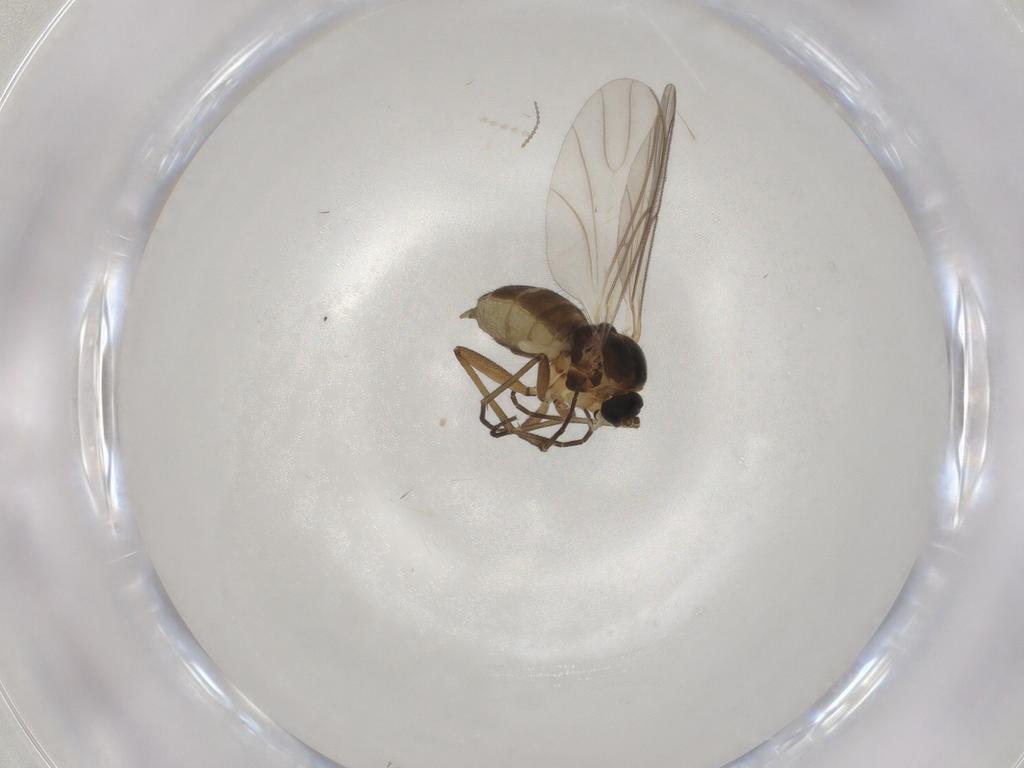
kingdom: Animalia
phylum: Arthropoda
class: Insecta
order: Diptera
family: Cecidomyiidae
